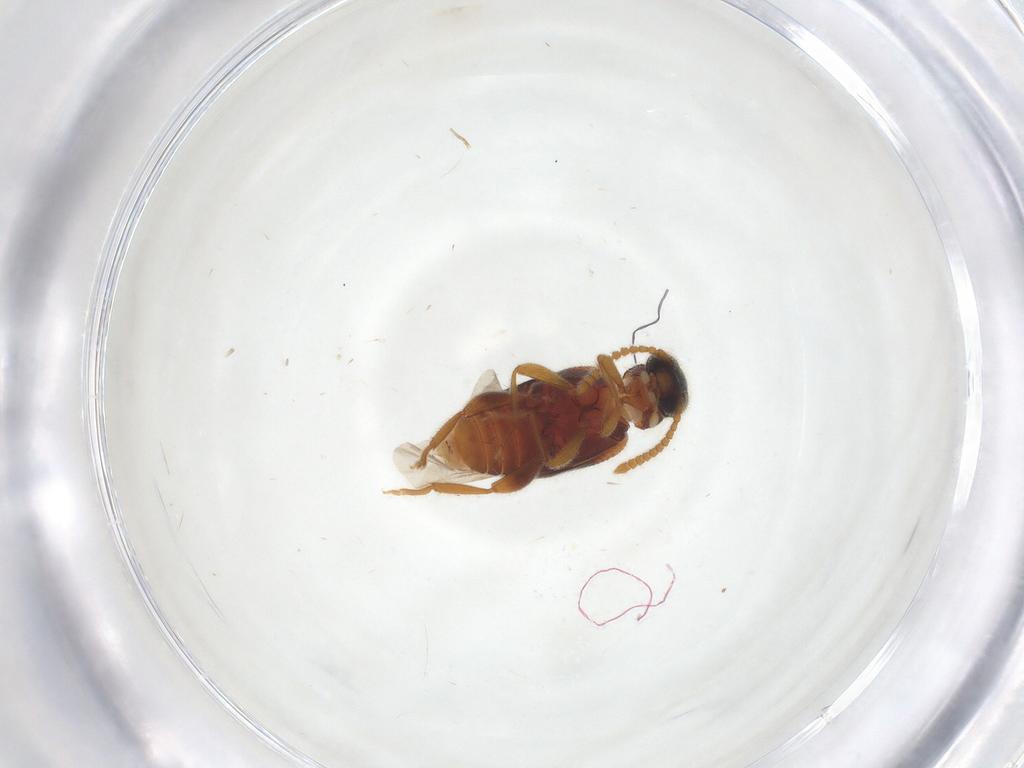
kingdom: Animalia
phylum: Arthropoda
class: Insecta
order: Coleoptera
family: Aderidae
